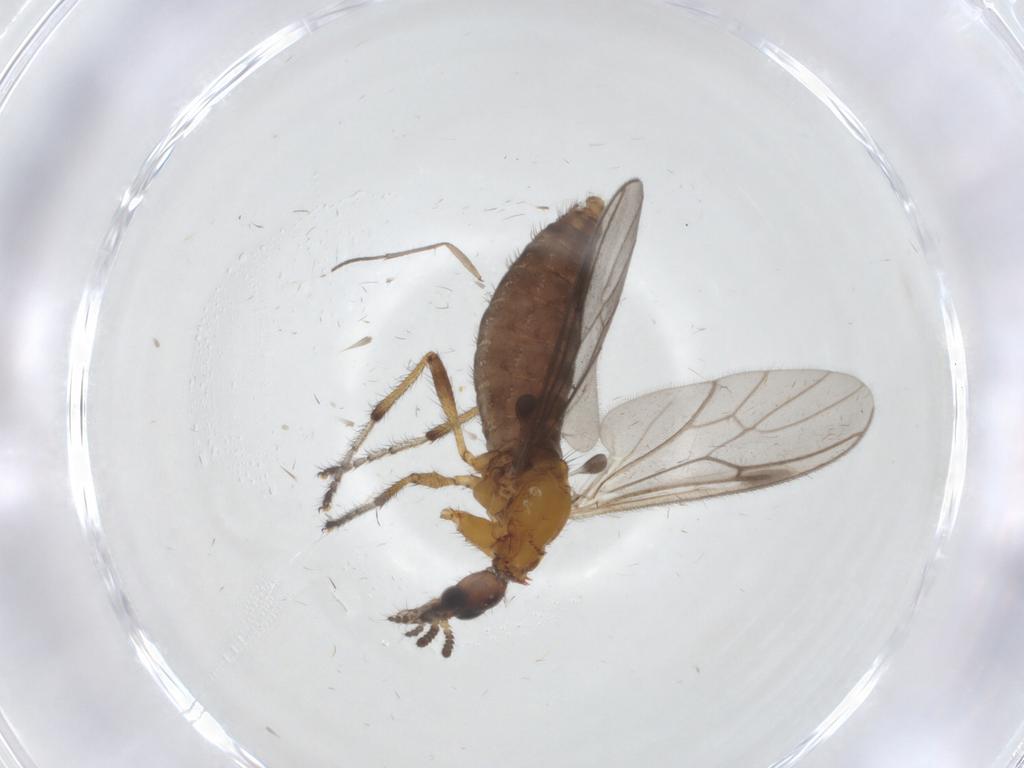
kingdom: Animalia
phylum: Arthropoda
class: Insecta
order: Diptera
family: Bibionidae
